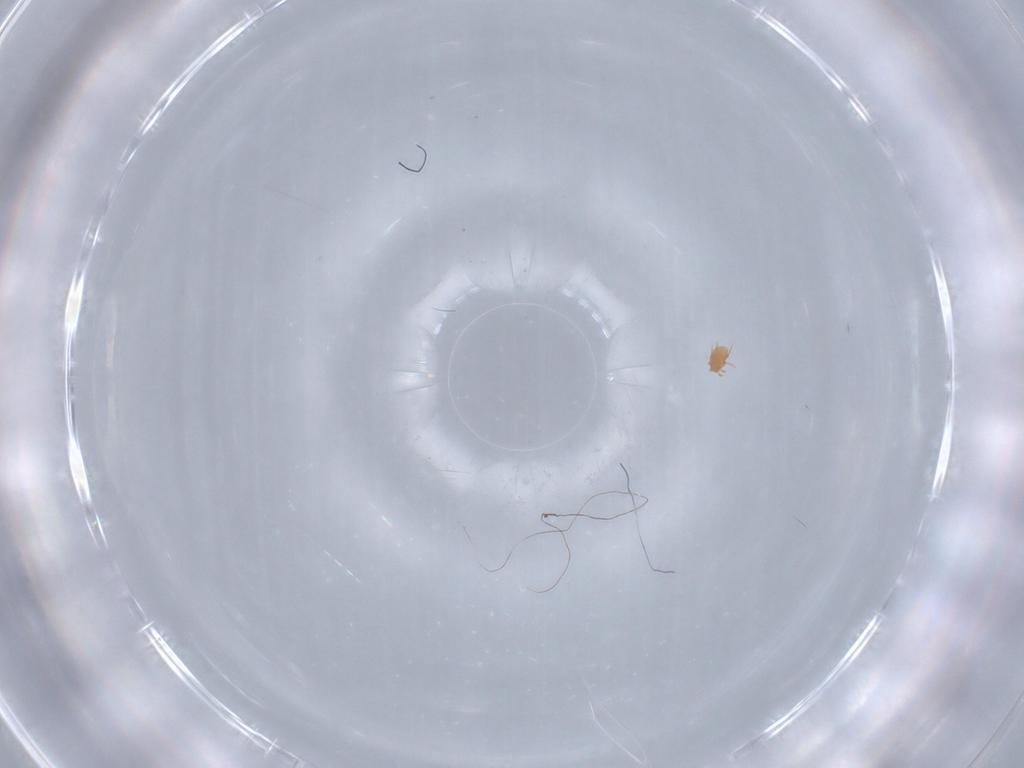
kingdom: Animalia
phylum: Arthropoda
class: Arachnida
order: Trombidiformes
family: Neopygmephoridae
